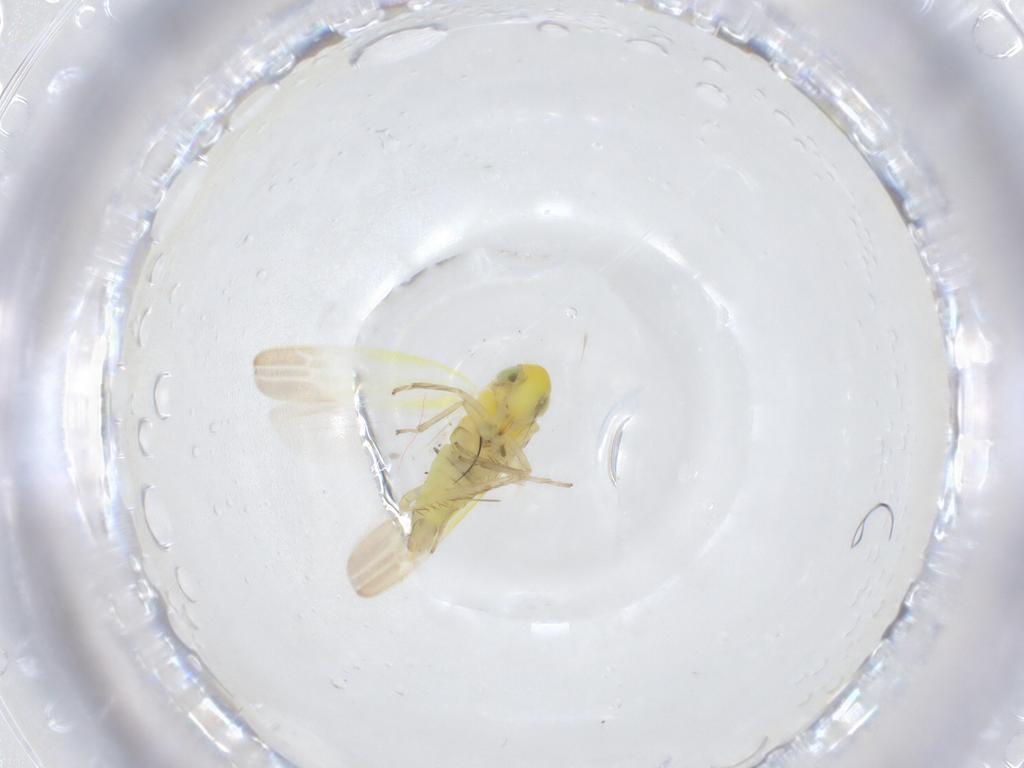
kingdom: Animalia
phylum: Arthropoda
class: Insecta
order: Hemiptera
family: Cicadellidae
